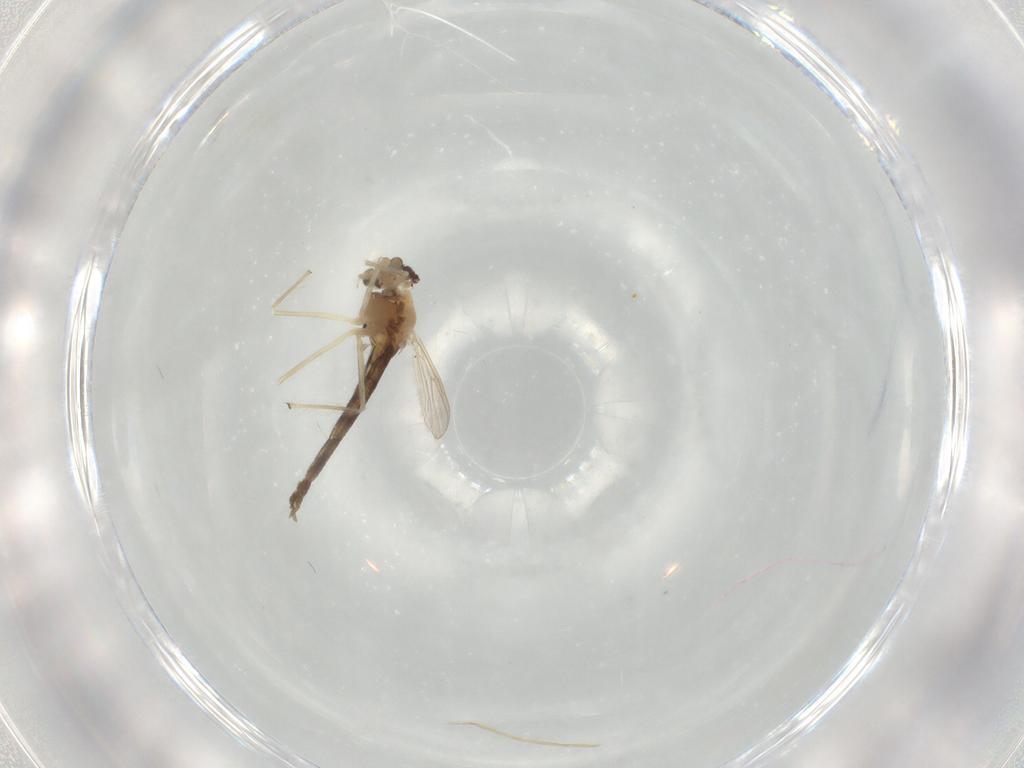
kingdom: Animalia
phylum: Arthropoda
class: Insecta
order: Diptera
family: Chironomidae
